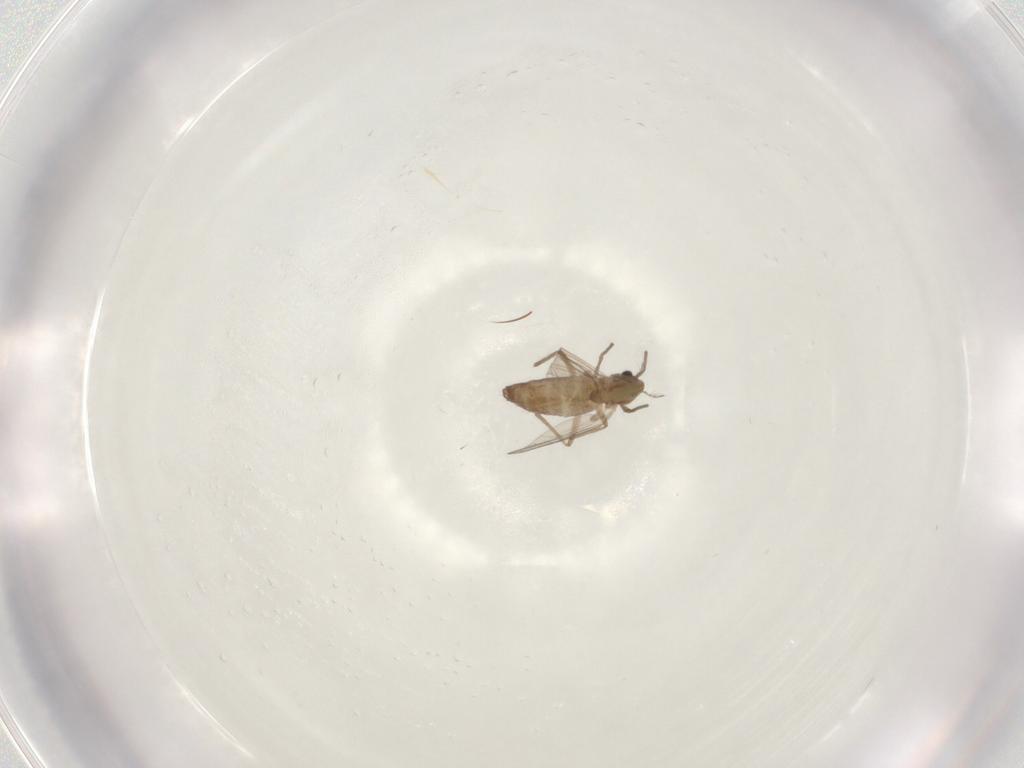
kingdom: Animalia
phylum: Arthropoda
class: Insecta
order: Diptera
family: Chironomidae
